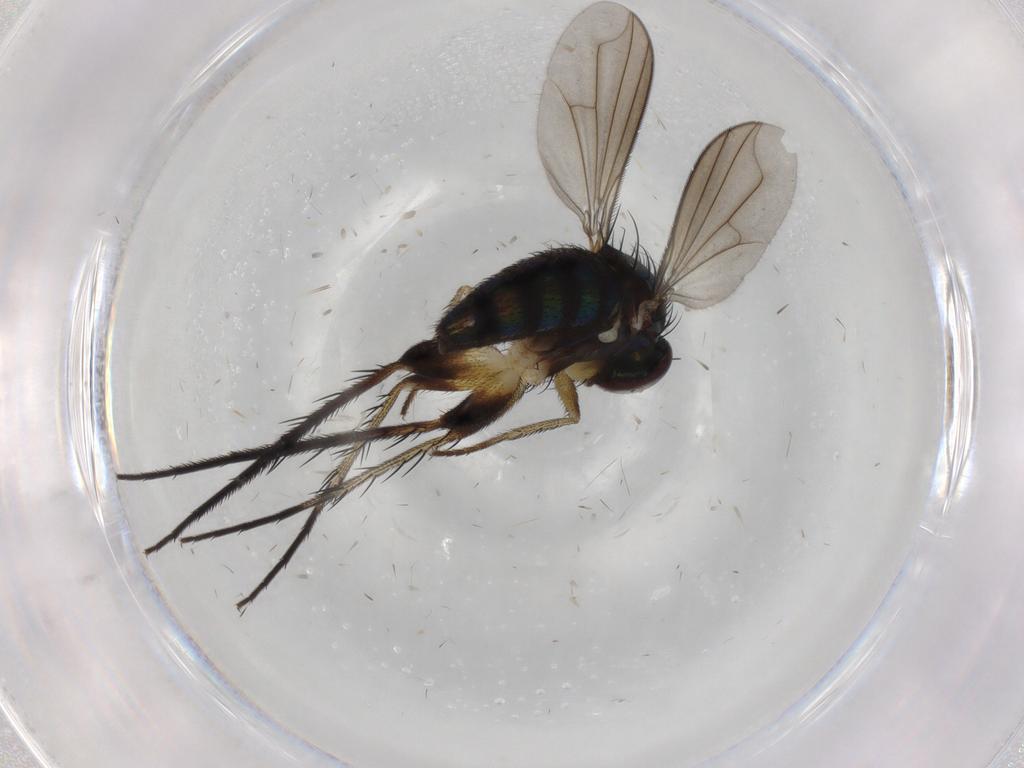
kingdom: Animalia
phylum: Arthropoda
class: Insecta
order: Diptera
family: Dolichopodidae
